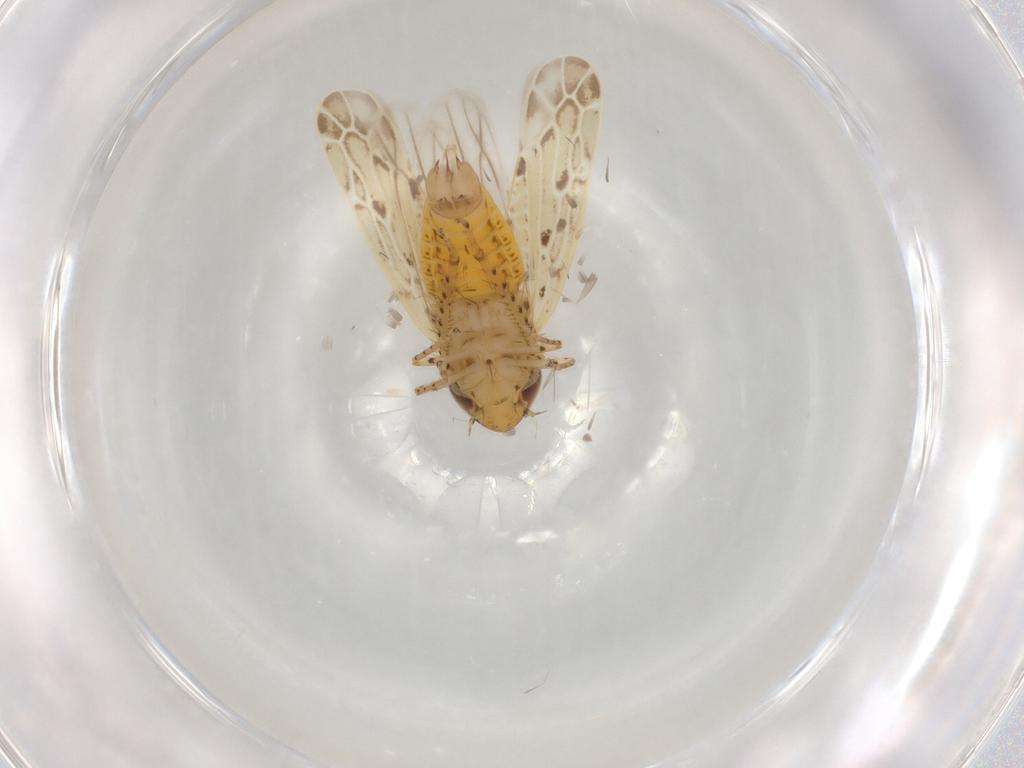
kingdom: Animalia
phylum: Arthropoda
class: Insecta
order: Hemiptera
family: Cicadellidae
